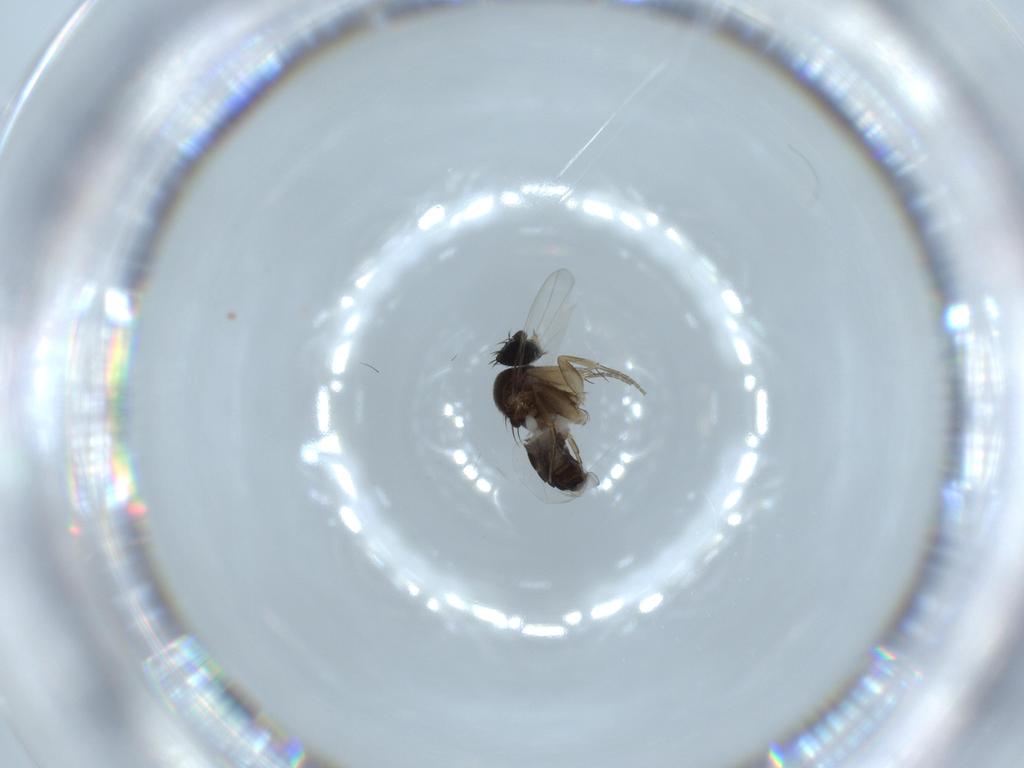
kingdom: Animalia
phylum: Arthropoda
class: Insecta
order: Diptera
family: Phoridae
